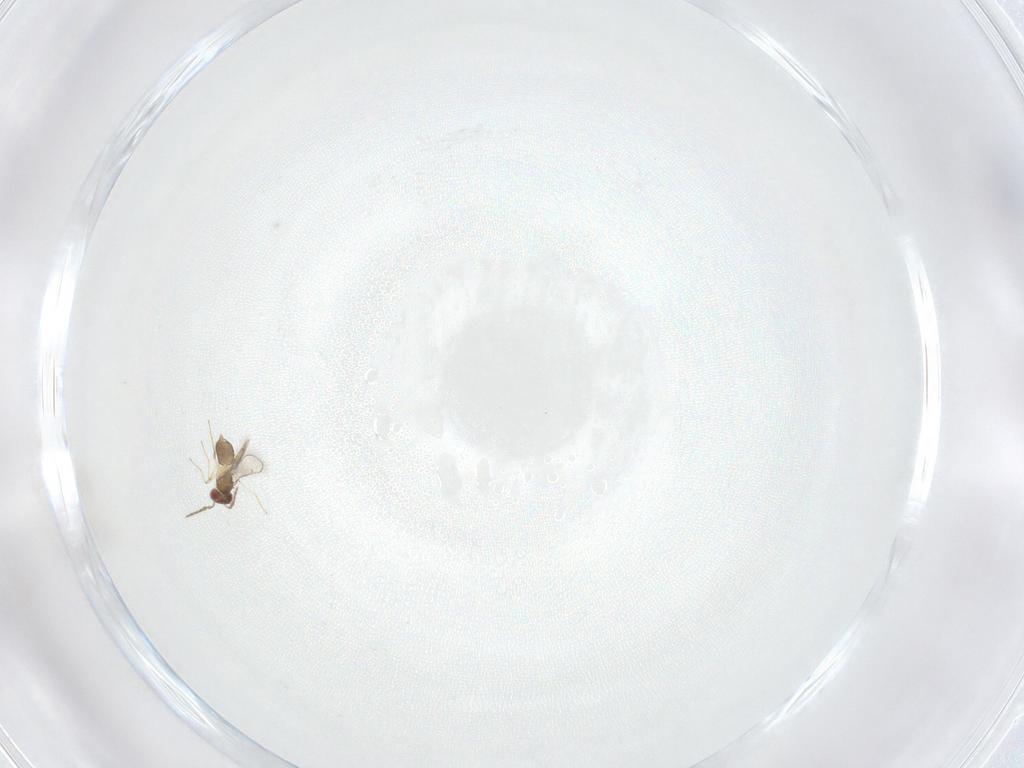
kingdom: Animalia
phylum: Arthropoda
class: Insecta
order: Hymenoptera
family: Eulophidae
